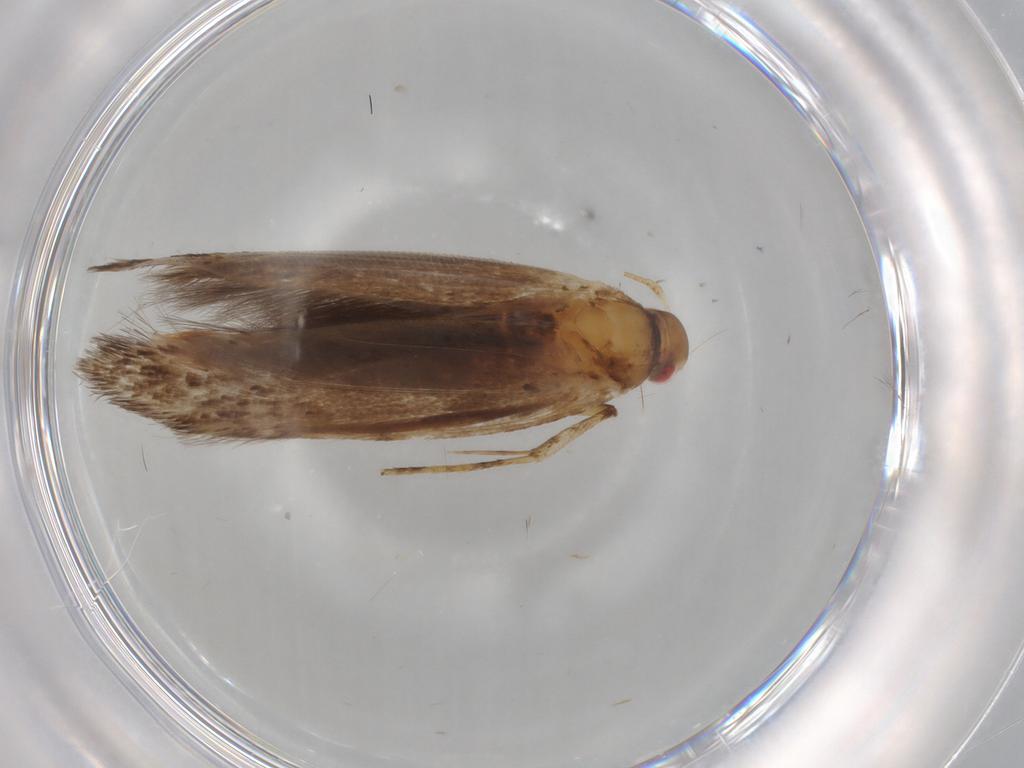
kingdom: Animalia
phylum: Arthropoda
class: Insecta
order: Lepidoptera
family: Cosmopterigidae
